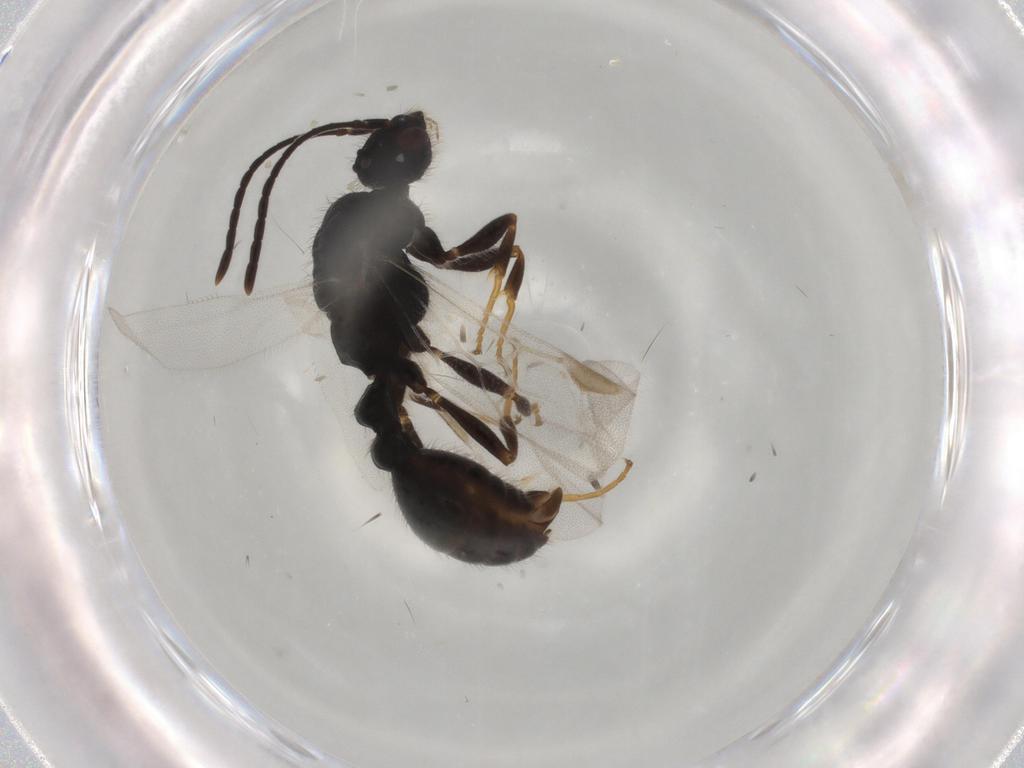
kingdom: Animalia
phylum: Arthropoda
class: Insecta
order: Hymenoptera
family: Formicidae
